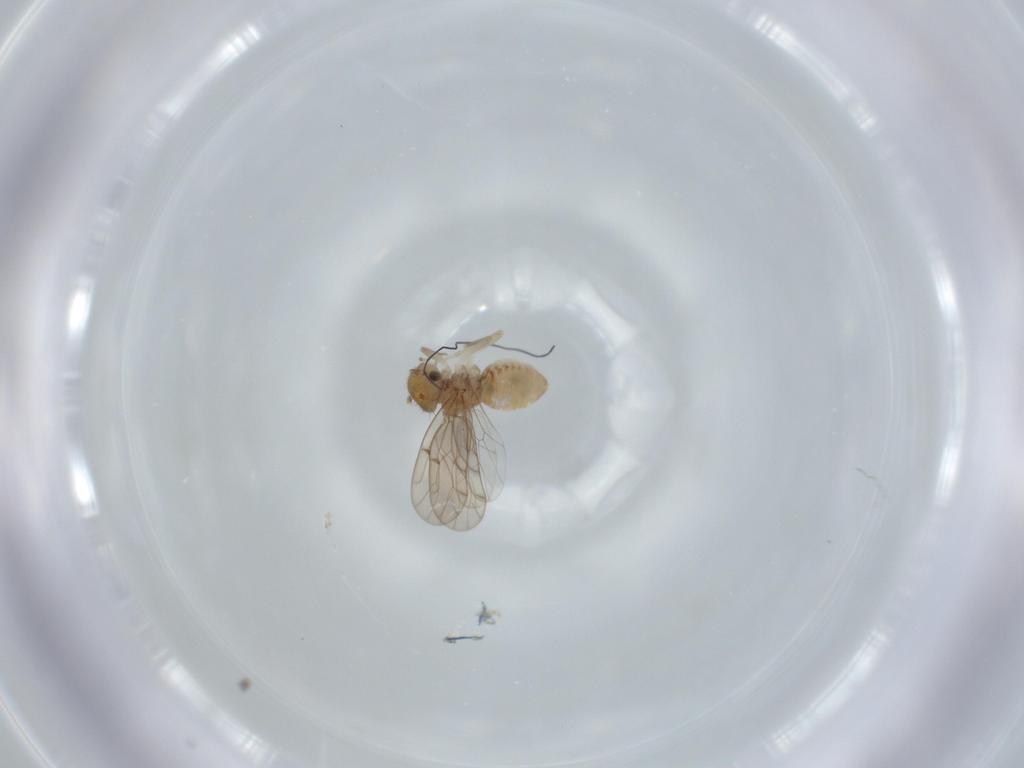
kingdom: Animalia
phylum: Arthropoda
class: Insecta
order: Psocodea
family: Ectopsocidae
